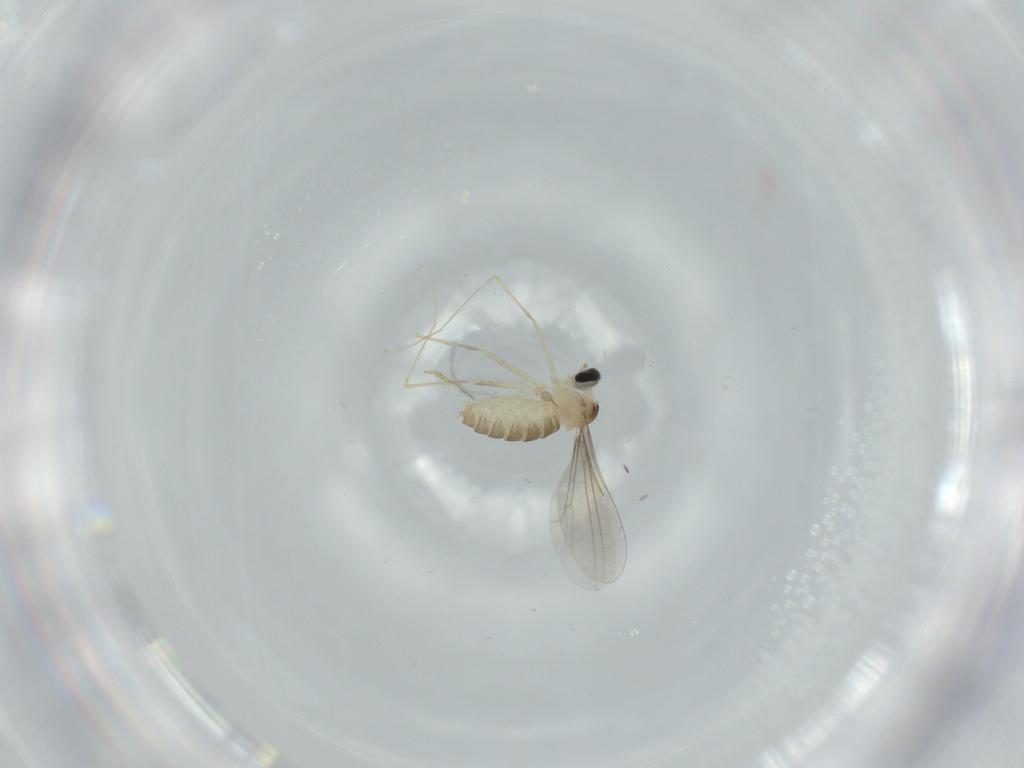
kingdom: Animalia
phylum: Arthropoda
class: Insecta
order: Diptera
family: Cecidomyiidae
